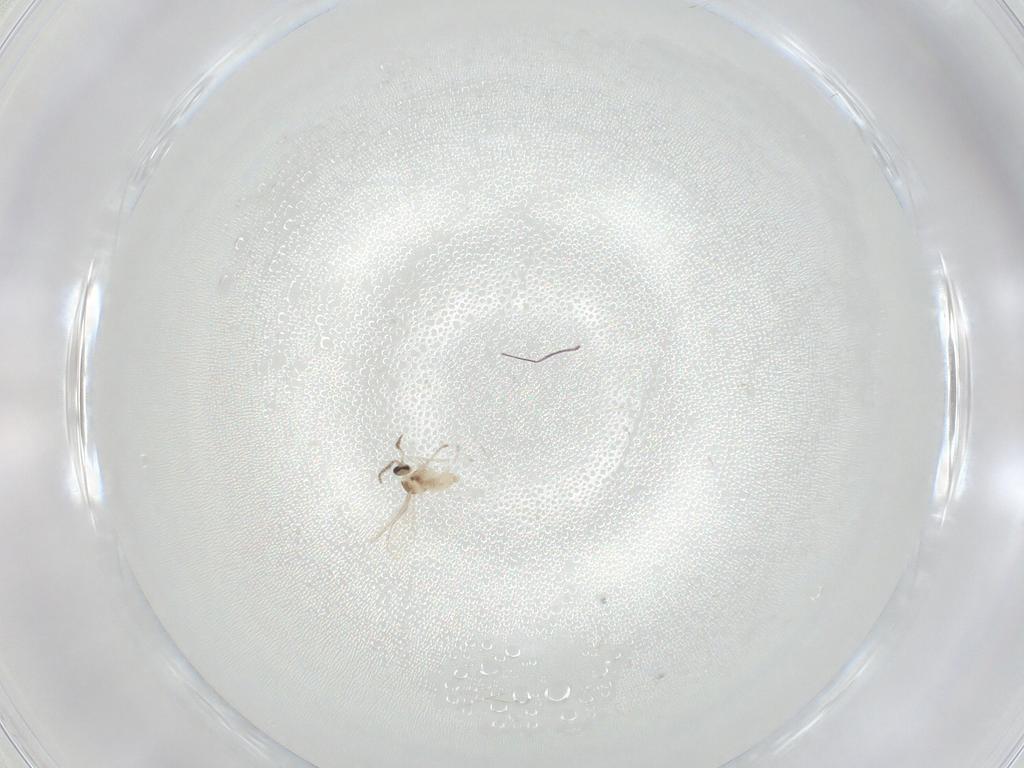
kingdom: Animalia
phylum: Arthropoda
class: Insecta
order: Diptera
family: Cecidomyiidae
